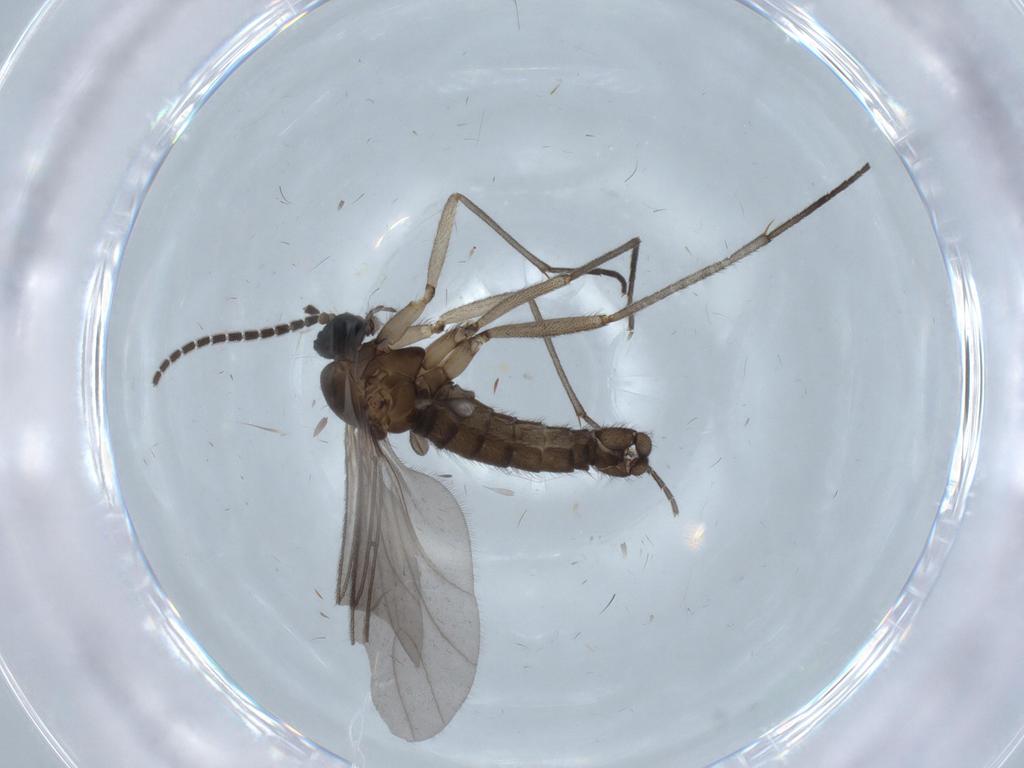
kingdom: Animalia
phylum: Arthropoda
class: Insecta
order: Diptera
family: Sciaridae
